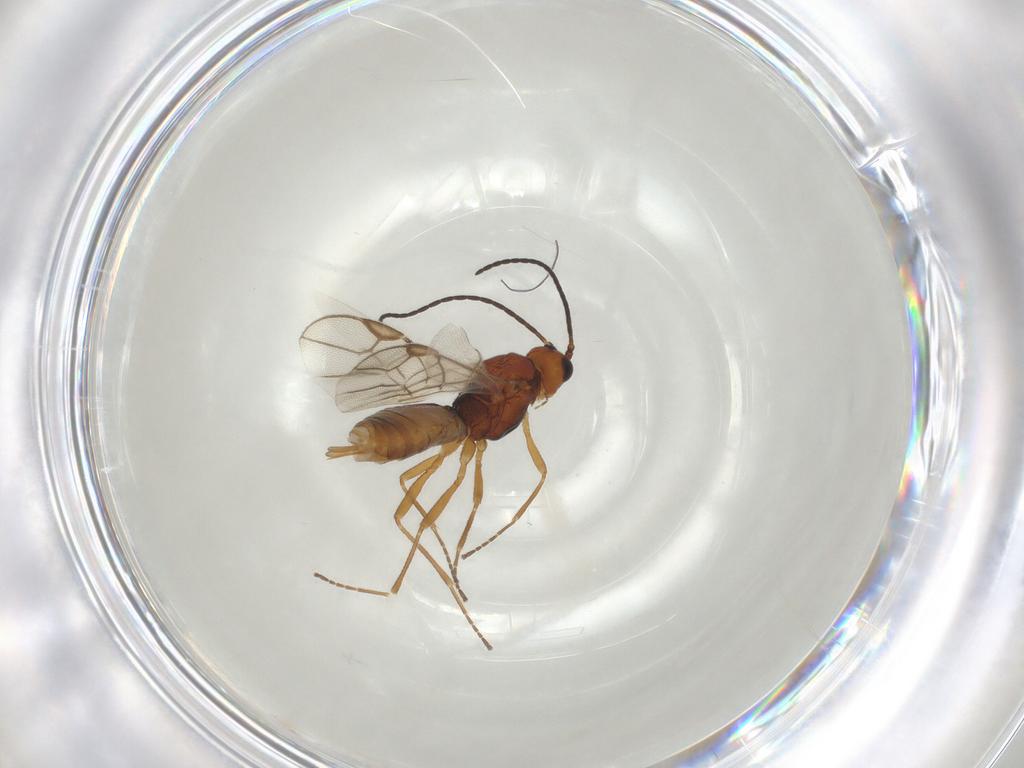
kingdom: Animalia
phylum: Arthropoda
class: Insecta
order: Hymenoptera
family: Braconidae
